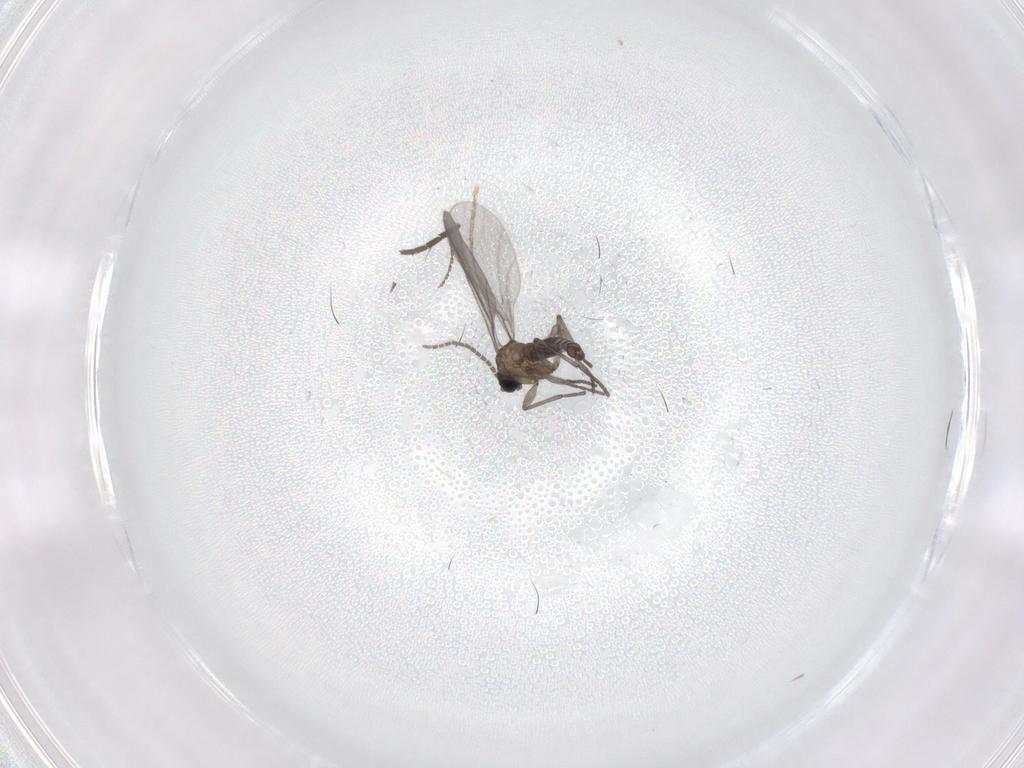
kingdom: Animalia
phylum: Arthropoda
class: Insecta
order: Diptera
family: Sciaridae
